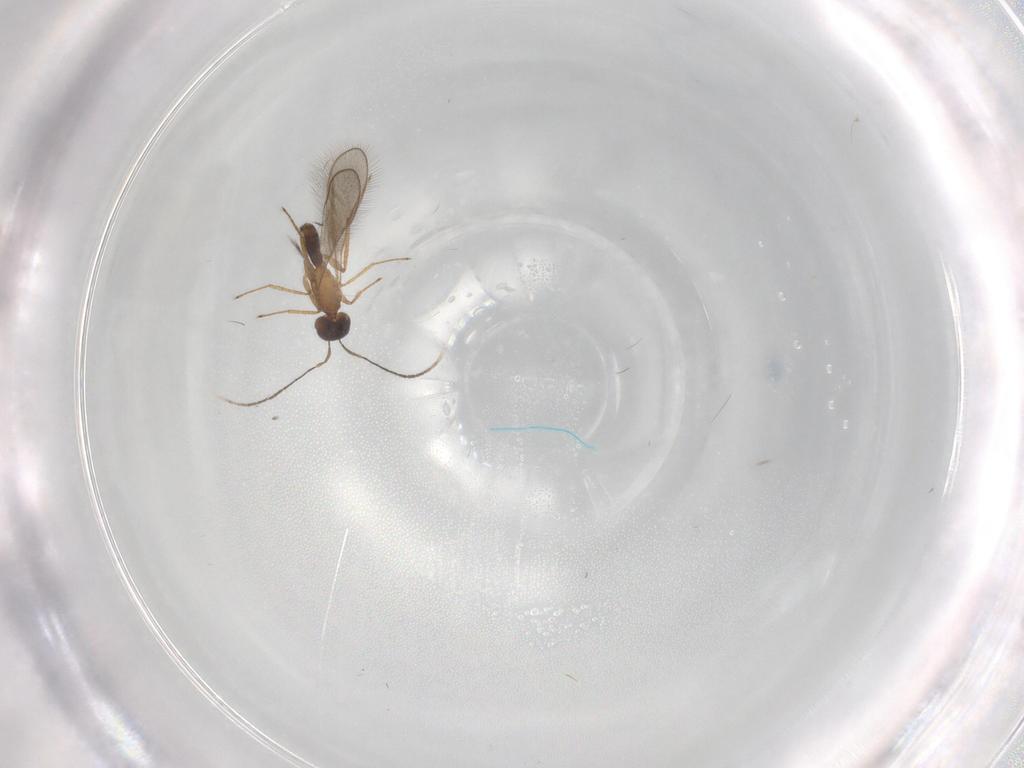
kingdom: Animalia
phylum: Arthropoda
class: Insecta
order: Hymenoptera
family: Mymaridae
